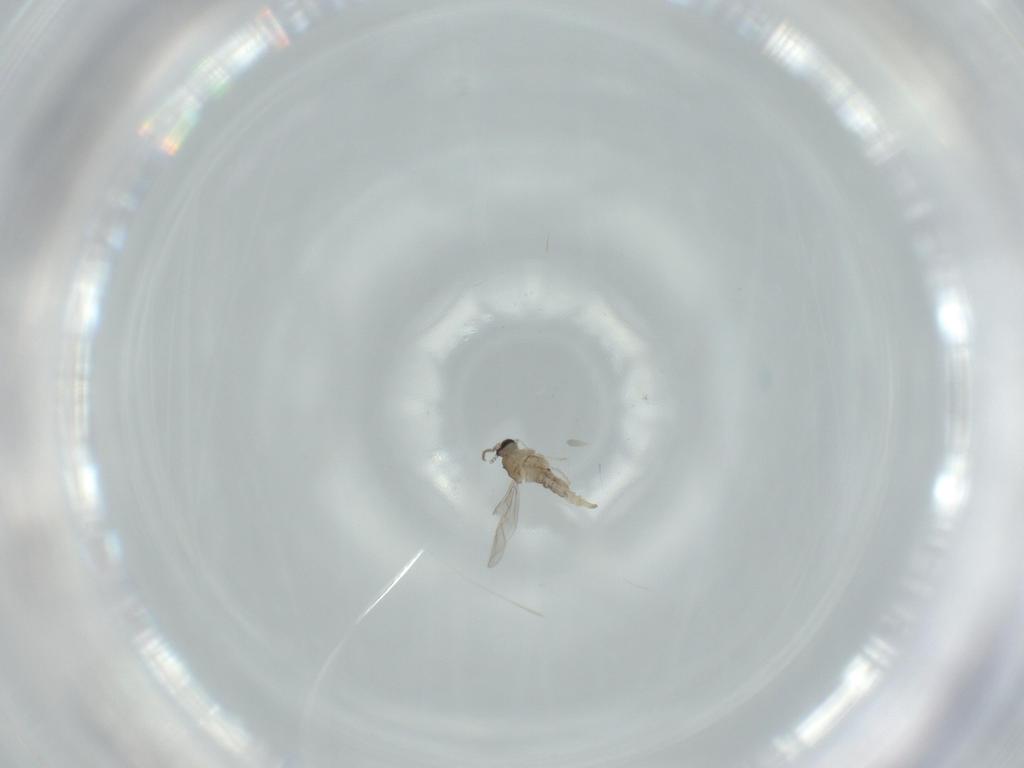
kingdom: Animalia
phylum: Arthropoda
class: Insecta
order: Diptera
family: Cecidomyiidae
